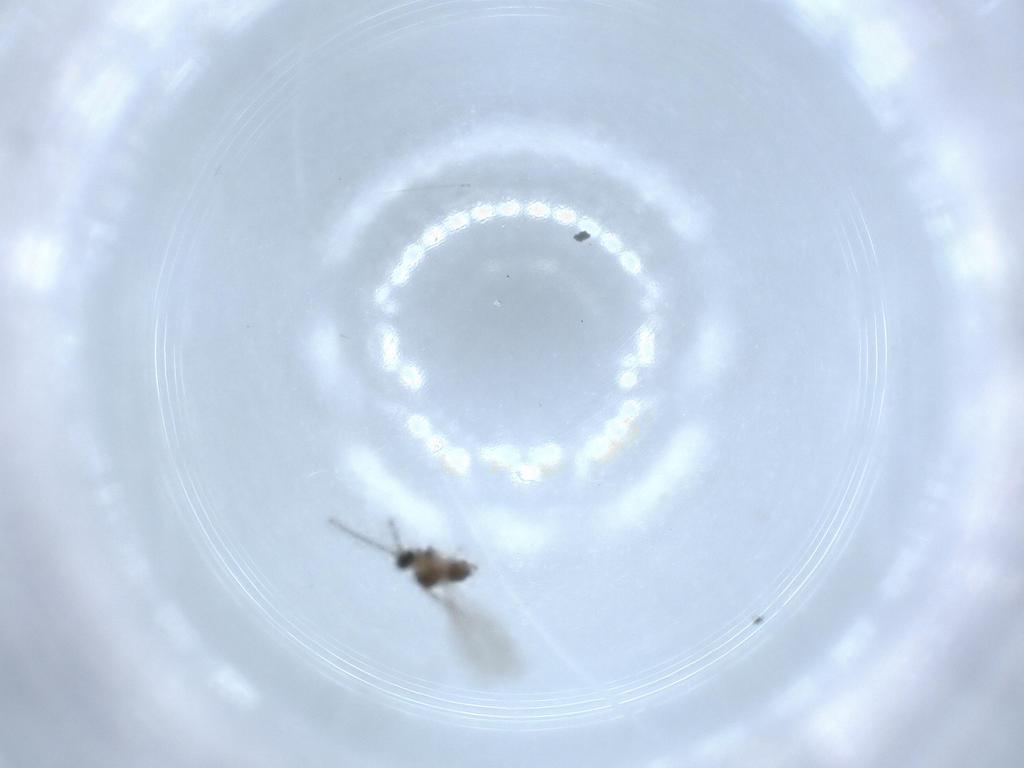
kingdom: Animalia
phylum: Arthropoda
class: Insecta
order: Diptera
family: Cecidomyiidae
